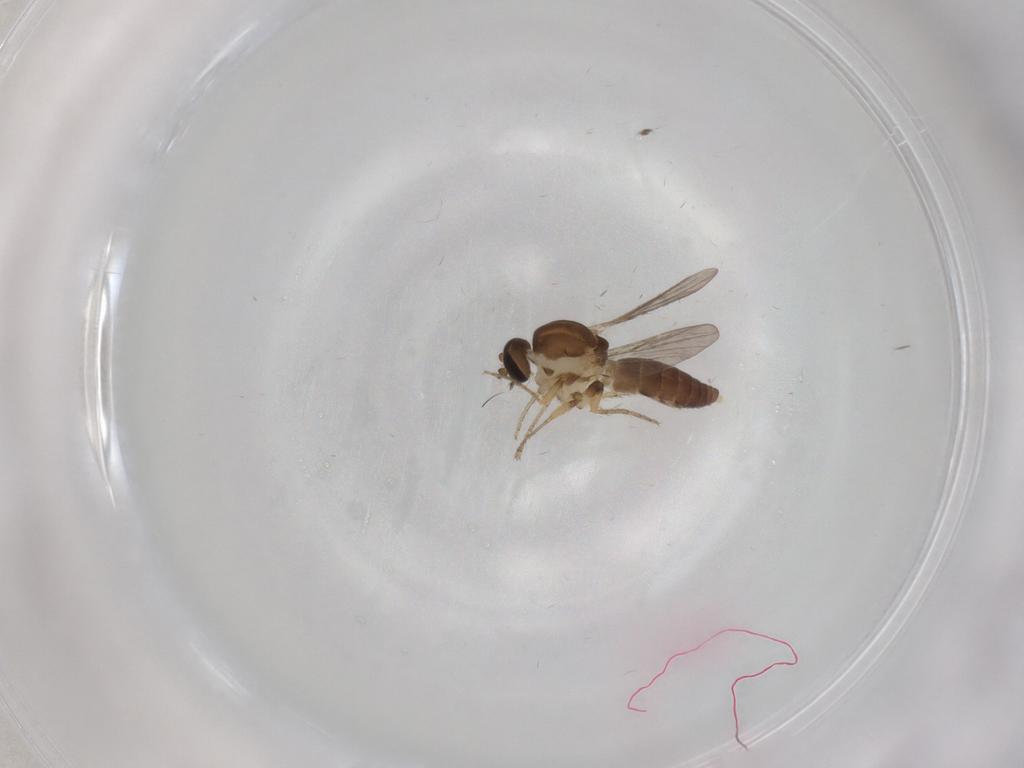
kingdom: Animalia
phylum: Arthropoda
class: Insecta
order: Diptera
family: Ceratopogonidae
